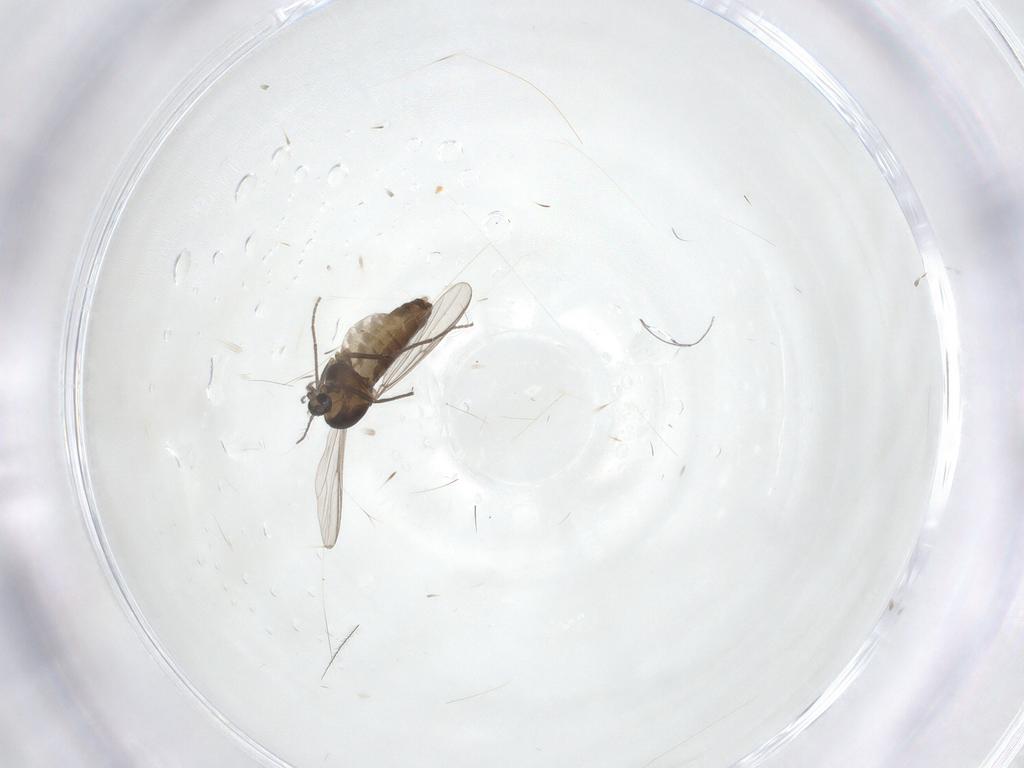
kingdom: Animalia
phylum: Arthropoda
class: Insecta
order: Diptera
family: Chironomidae
